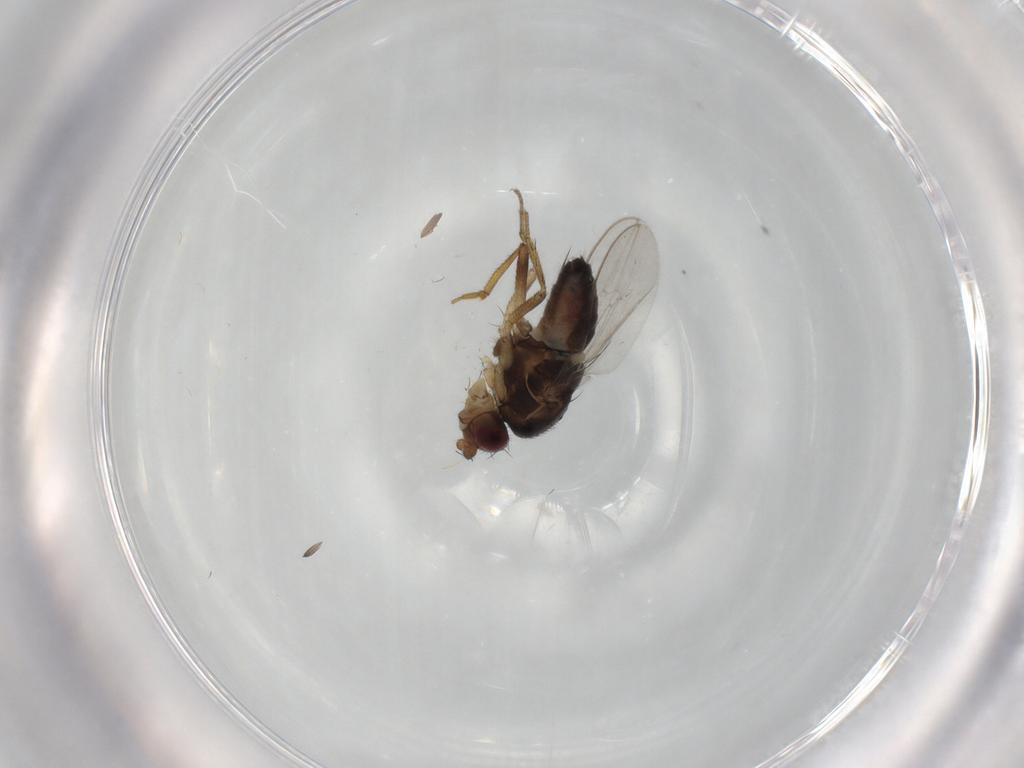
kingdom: Animalia
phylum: Arthropoda
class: Insecta
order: Diptera
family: Sphaeroceridae
